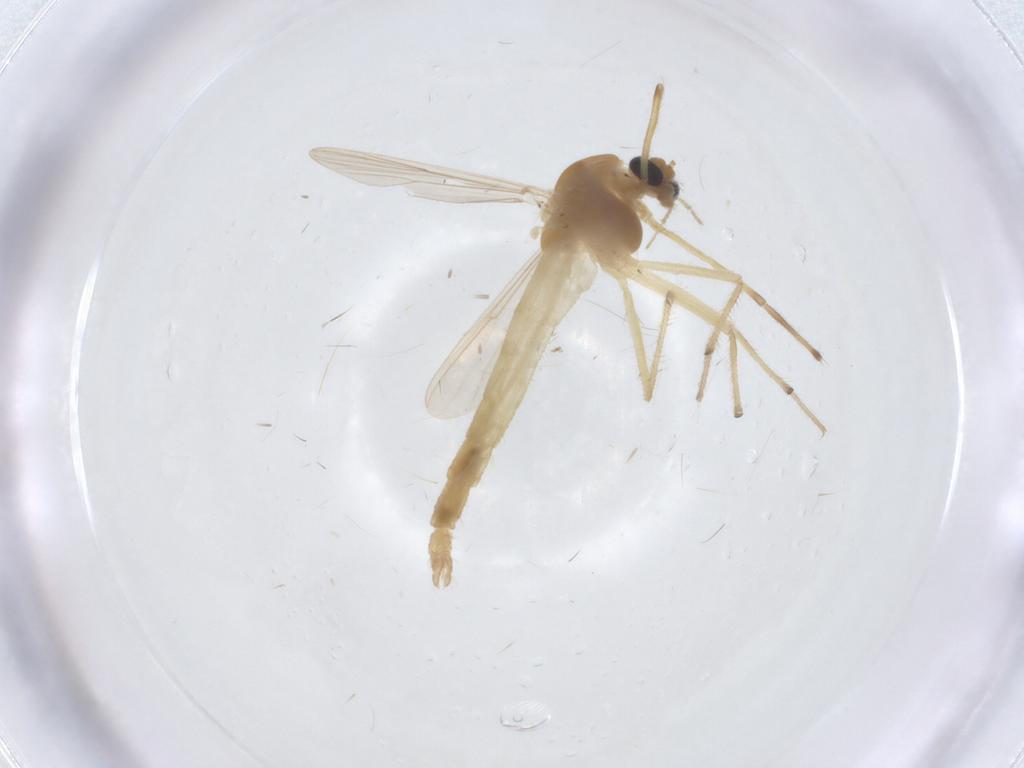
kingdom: Animalia
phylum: Arthropoda
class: Insecta
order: Diptera
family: Chironomidae
